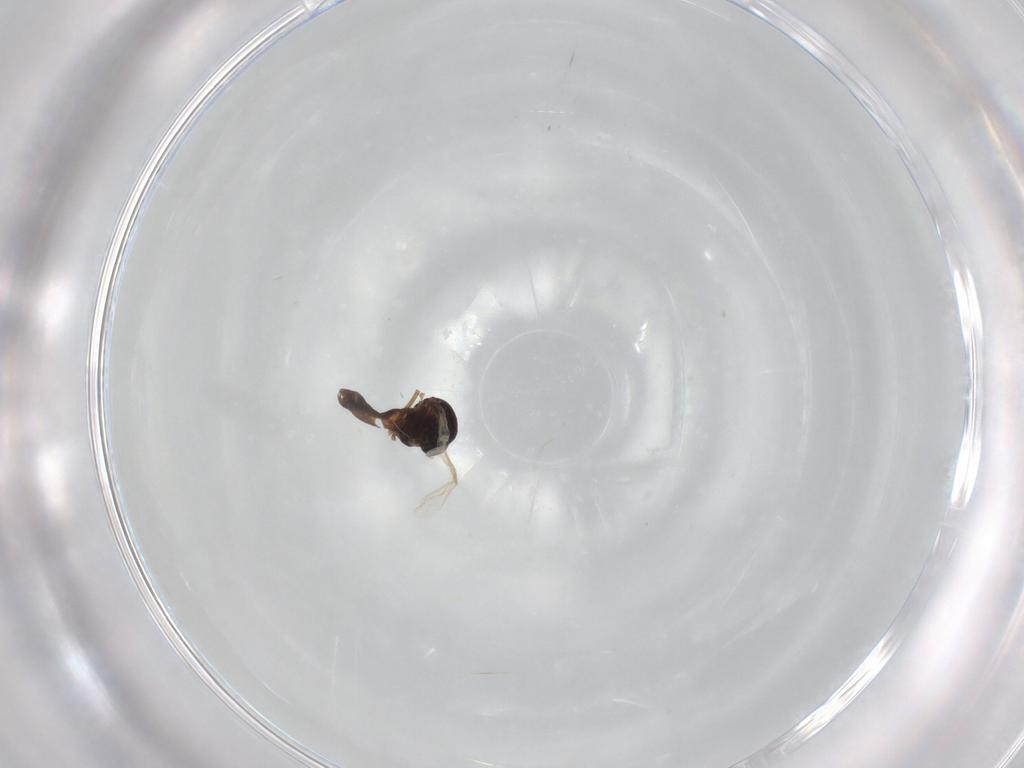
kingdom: Animalia
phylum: Arthropoda
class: Insecta
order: Diptera
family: Ceratopogonidae
